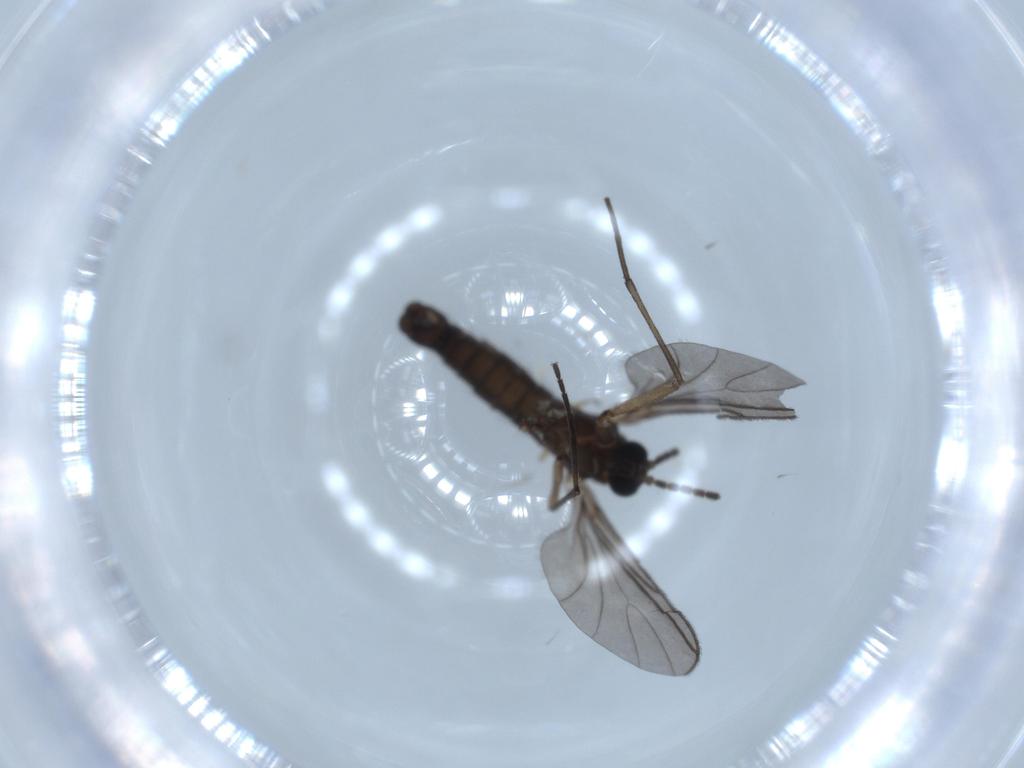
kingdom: Animalia
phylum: Arthropoda
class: Insecta
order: Diptera
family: Sciaridae
